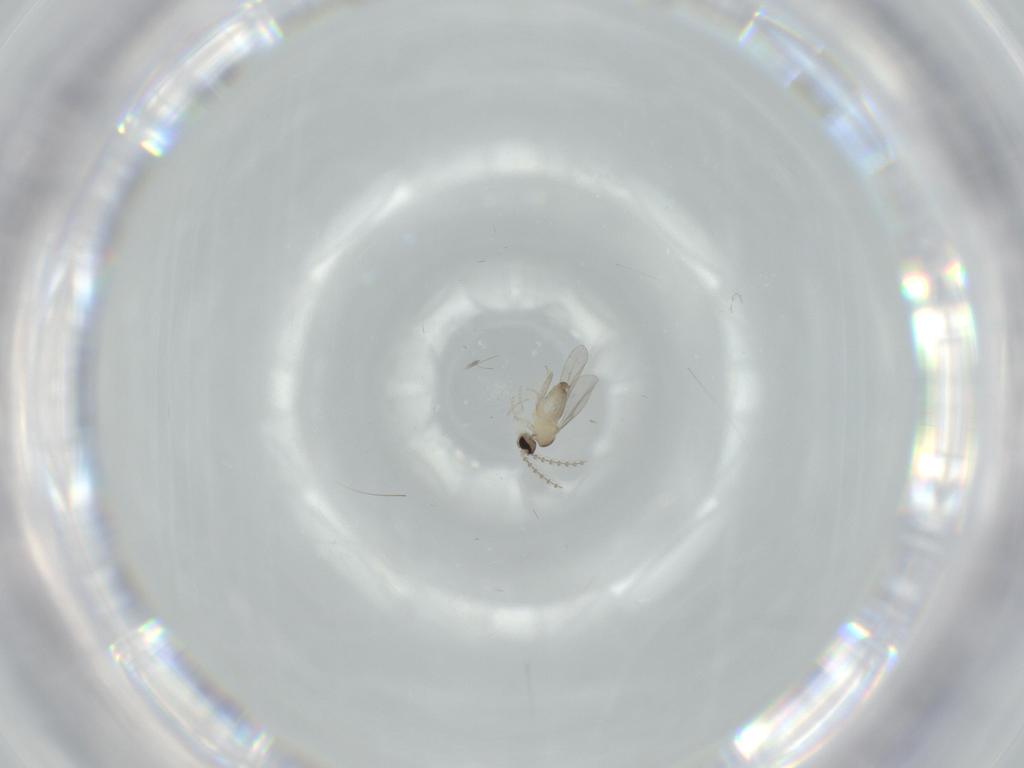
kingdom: Animalia
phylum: Arthropoda
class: Insecta
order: Diptera
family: Cecidomyiidae
